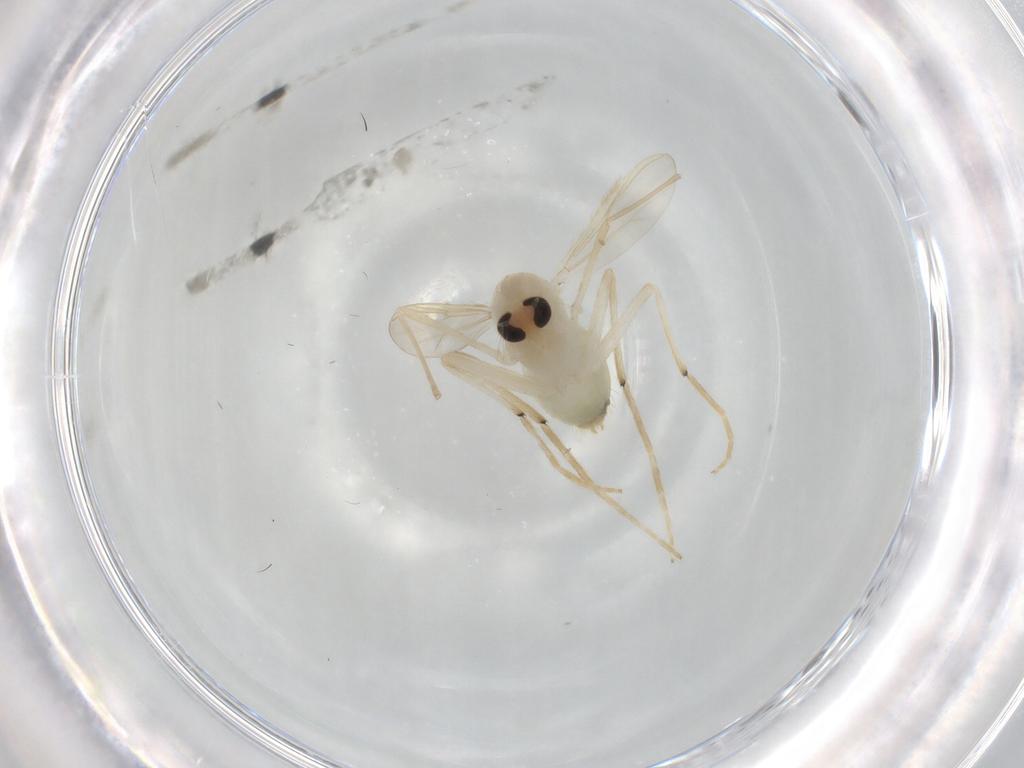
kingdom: Animalia
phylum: Arthropoda
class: Insecta
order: Diptera
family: Chironomidae
